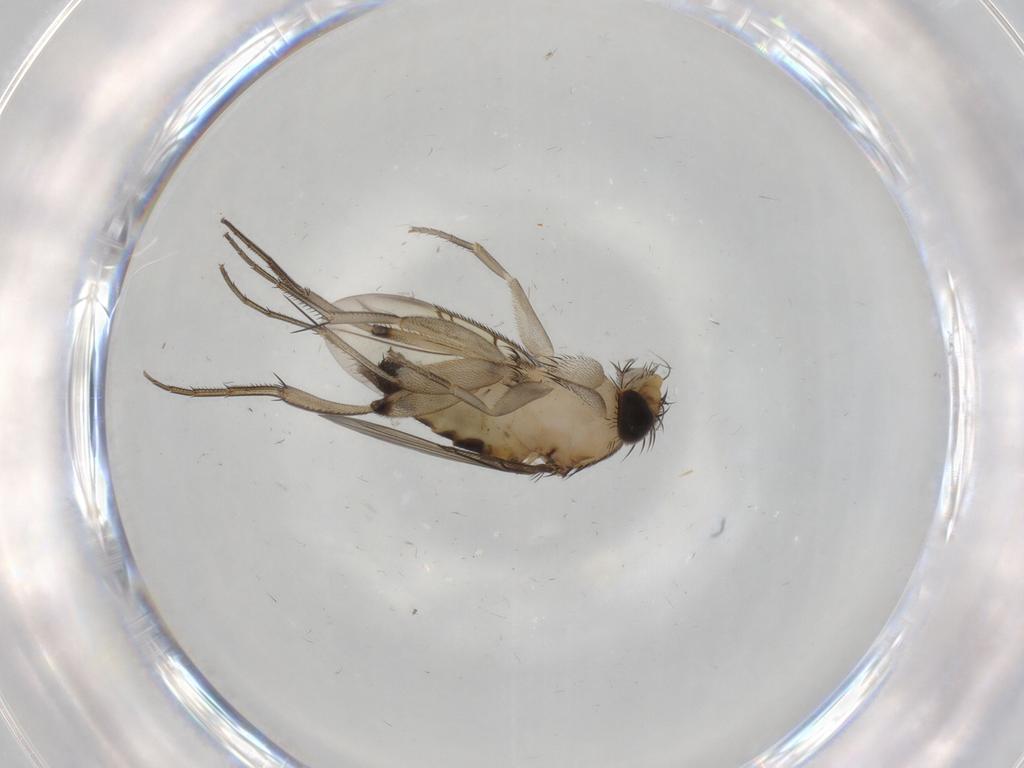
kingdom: Animalia
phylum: Arthropoda
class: Insecta
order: Diptera
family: Phoridae
